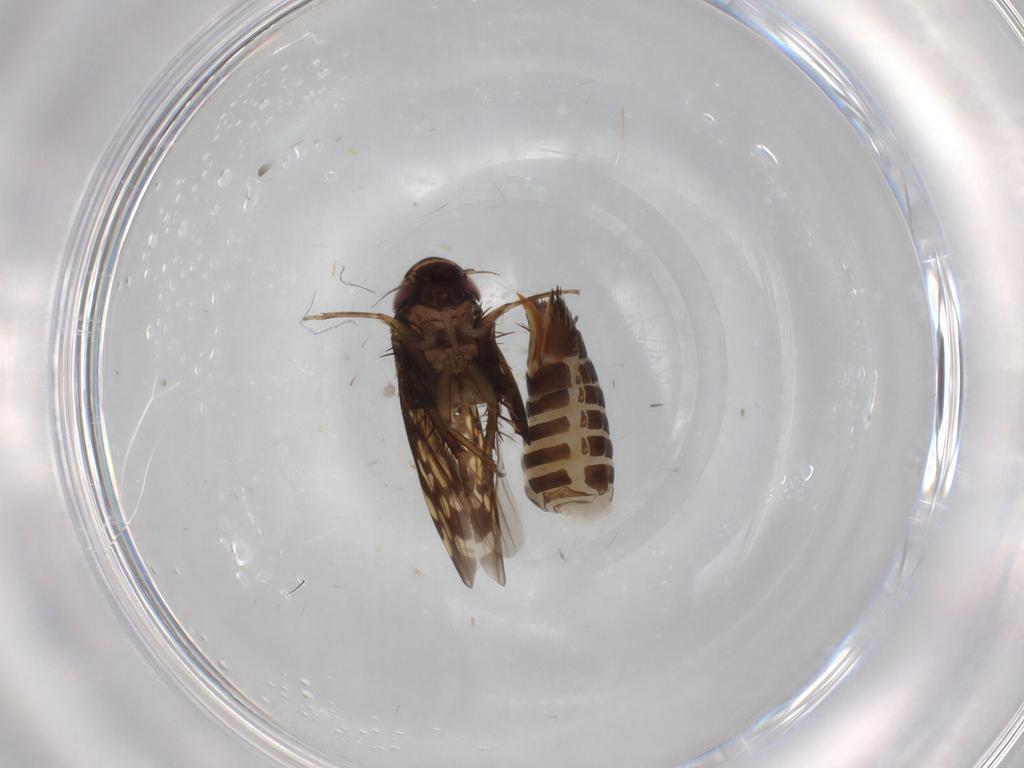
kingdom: Animalia
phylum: Arthropoda
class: Insecta
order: Hemiptera
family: Cicadellidae
